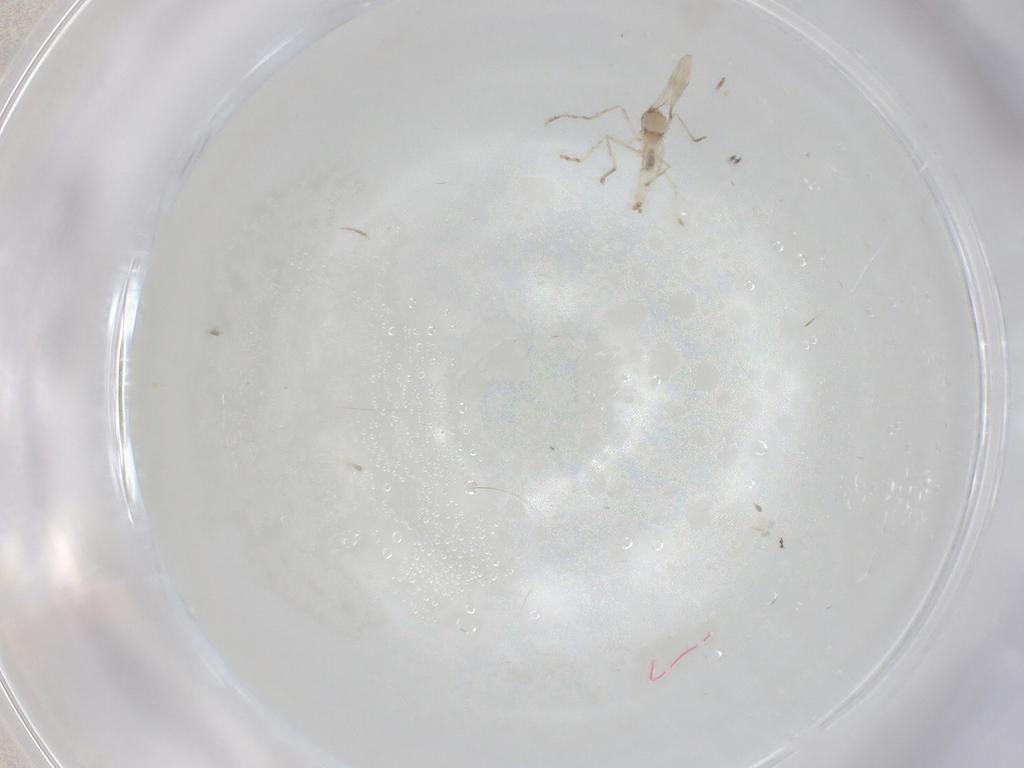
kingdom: Animalia
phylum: Arthropoda
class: Insecta
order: Diptera
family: Cecidomyiidae
